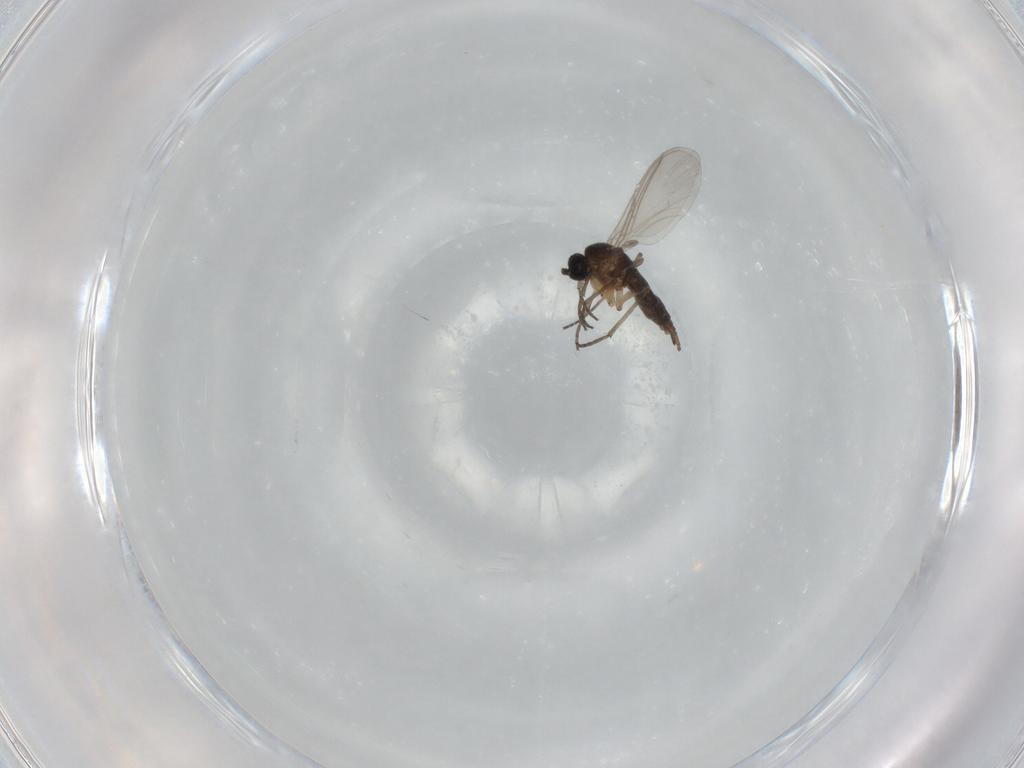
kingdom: Animalia
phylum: Arthropoda
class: Insecta
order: Diptera
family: Sciaridae
